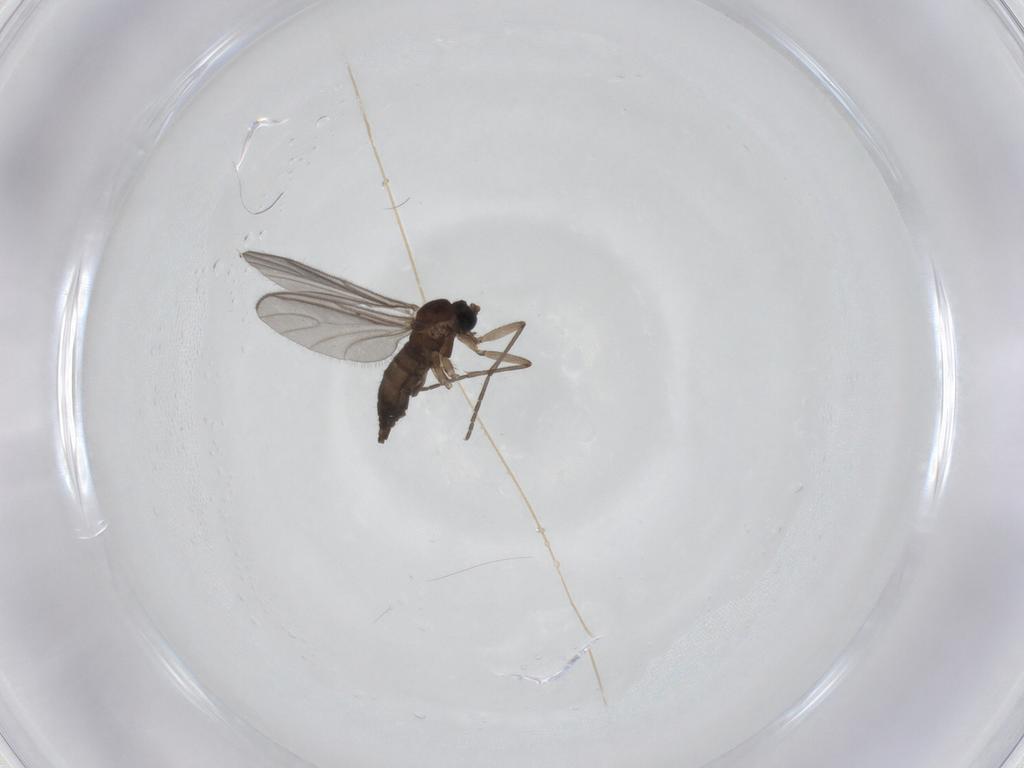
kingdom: Animalia
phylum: Arthropoda
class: Insecta
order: Diptera
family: Sciaridae
